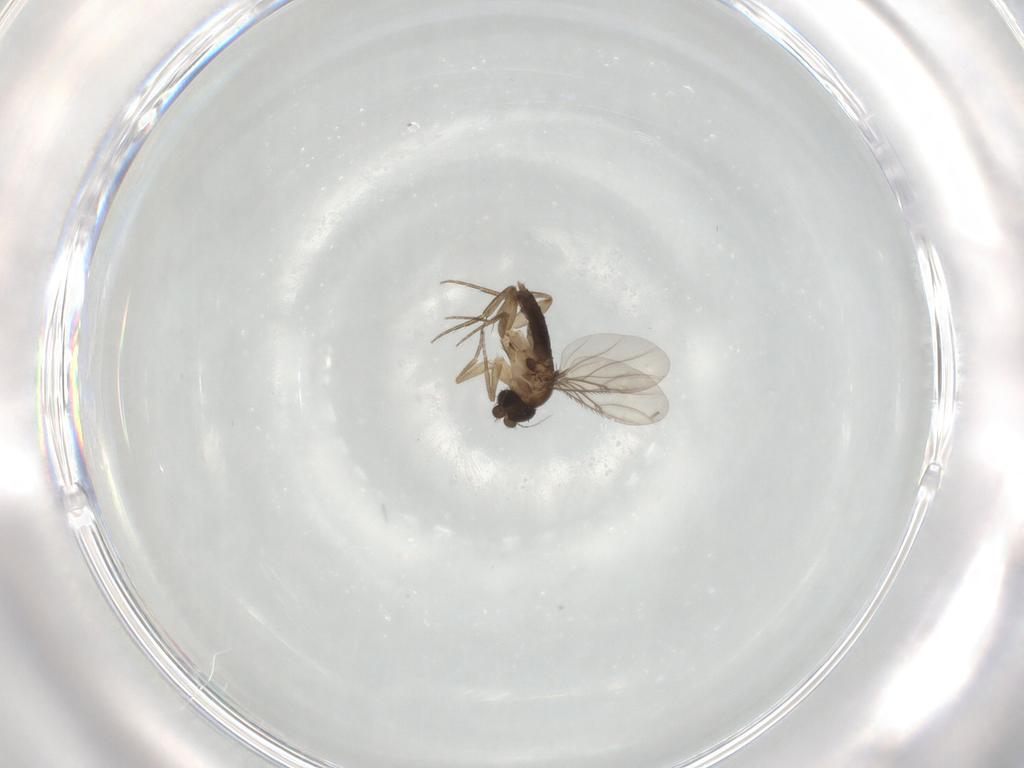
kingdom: Animalia
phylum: Arthropoda
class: Insecta
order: Diptera
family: Phoridae
